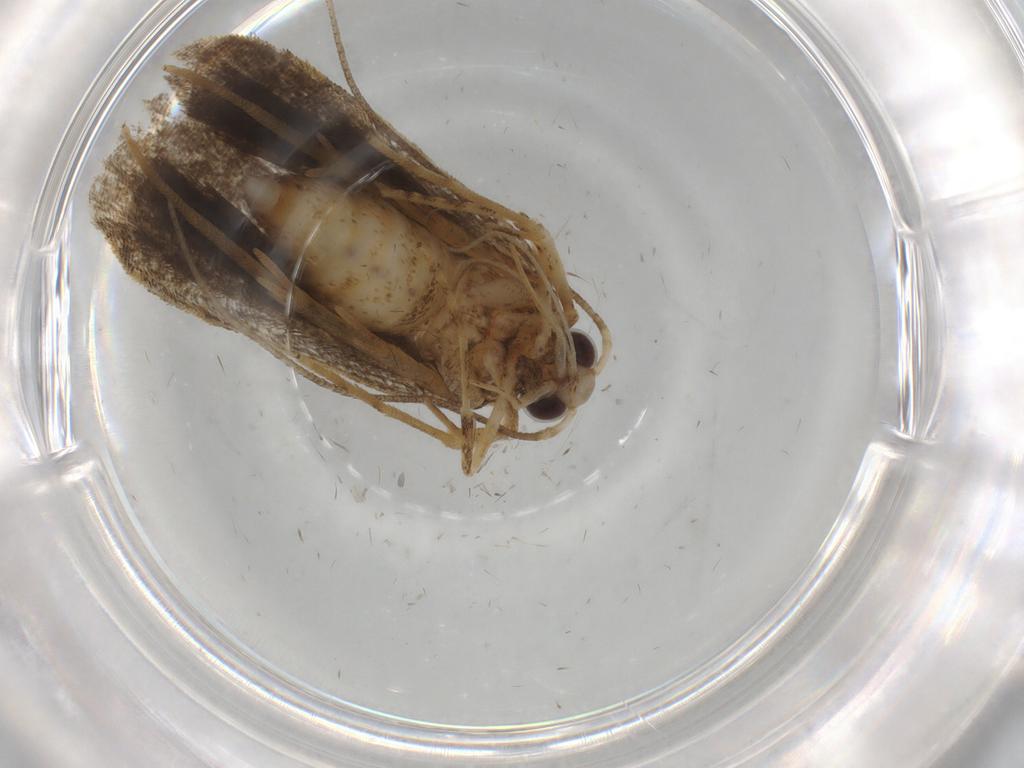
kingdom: Animalia
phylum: Arthropoda
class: Insecta
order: Lepidoptera
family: Autostichidae
